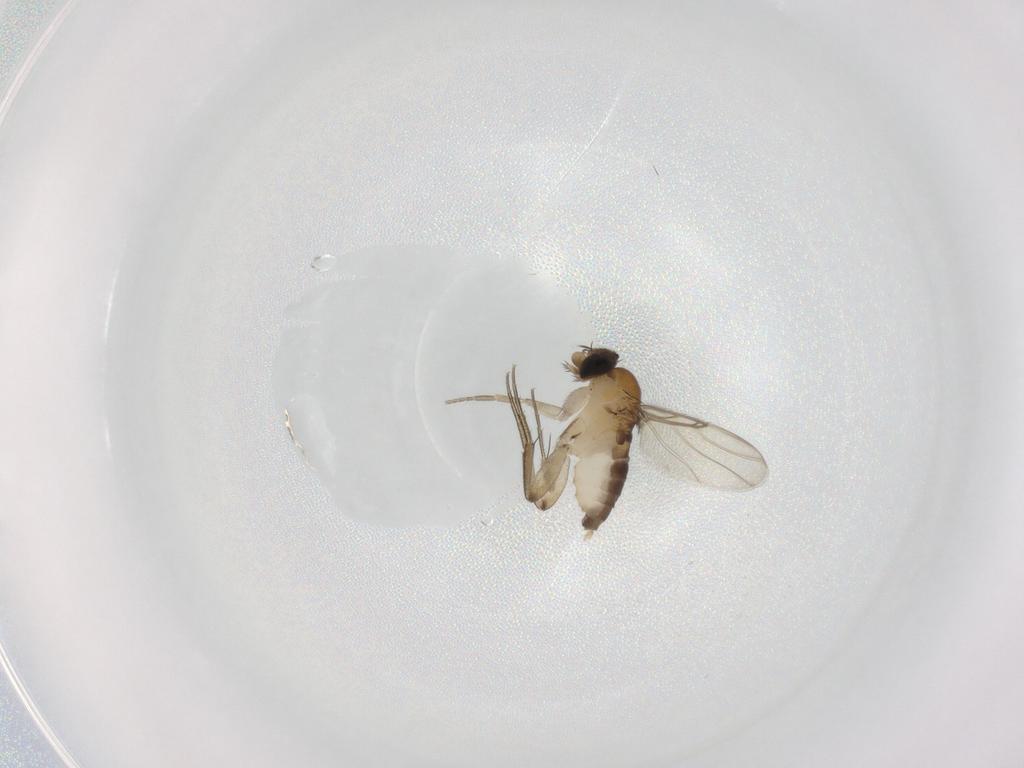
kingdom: Animalia
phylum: Arthropoda
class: Insecta
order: Diptera
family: Phoridae
